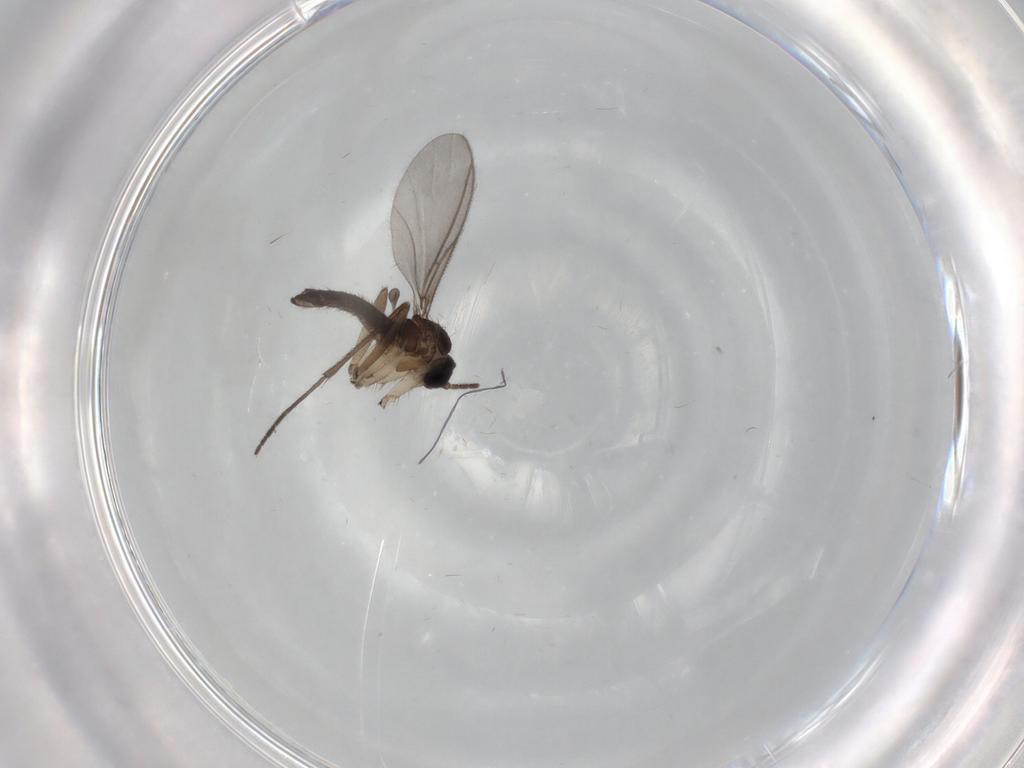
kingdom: Animalia
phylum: Arthropoda
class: Insecta
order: Diptera
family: Sciaridae
